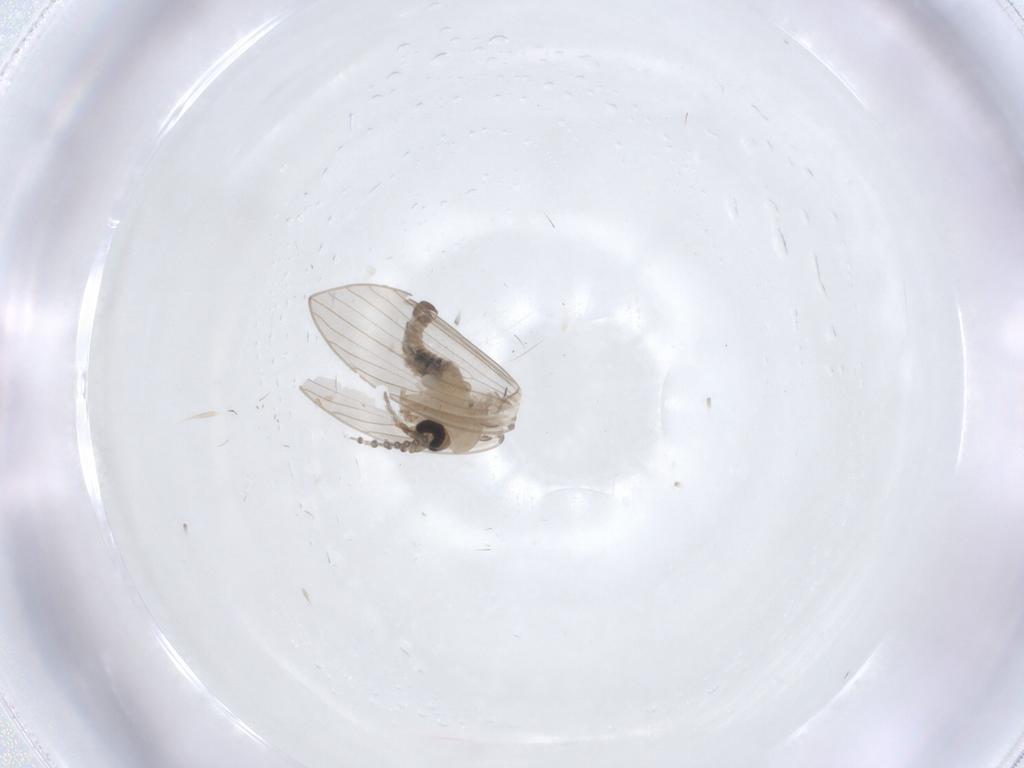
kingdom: Animalia
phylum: Arthropoda
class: Insecta
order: Diptera
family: Psychodidae
